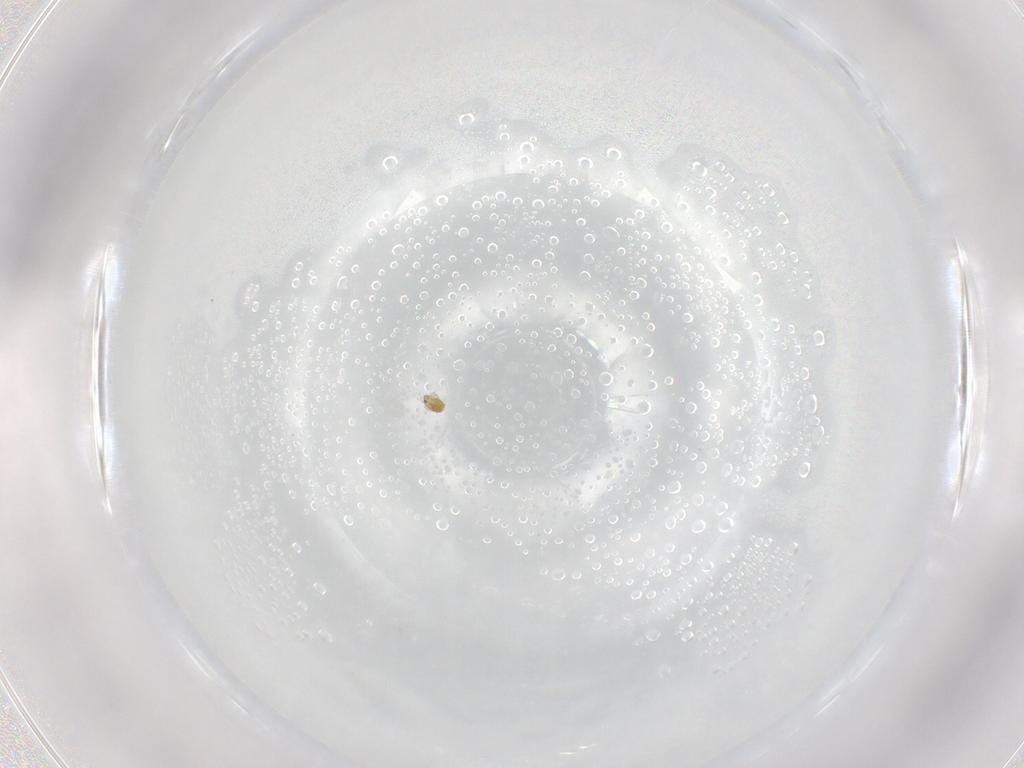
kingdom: Animalia
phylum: Arthropoda
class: Arachnida
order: Trombidiformes
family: Unionicolidae
